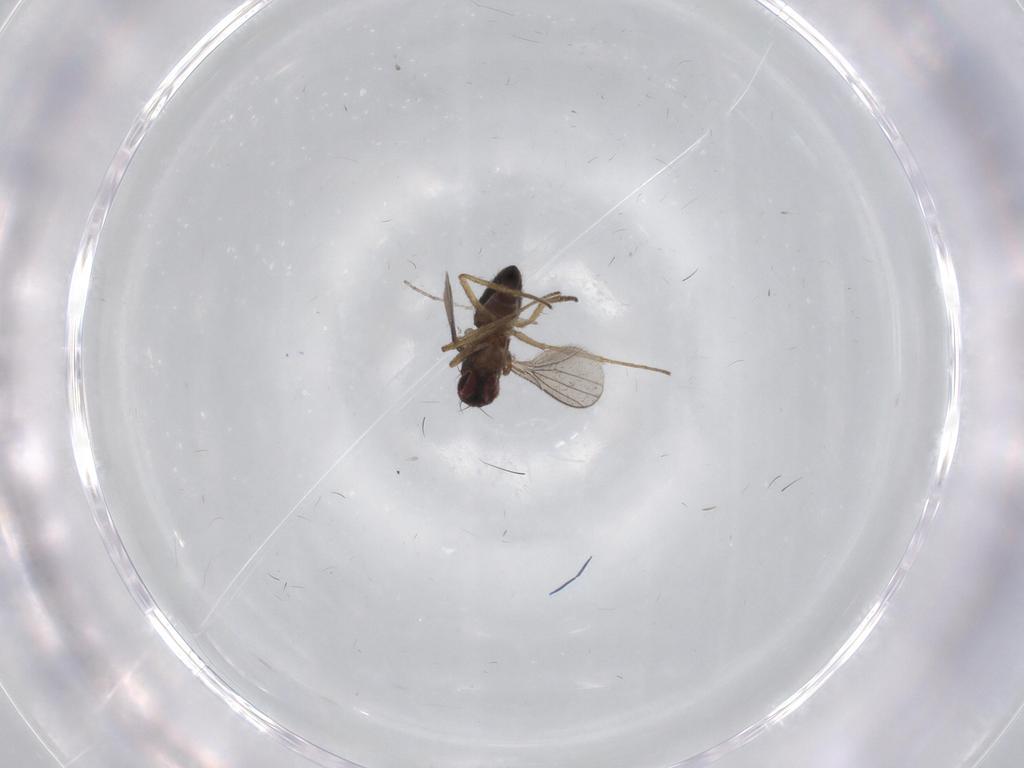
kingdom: Animalia
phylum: Arthropoda
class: Insecta
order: Diptera
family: Dolichopodidae
